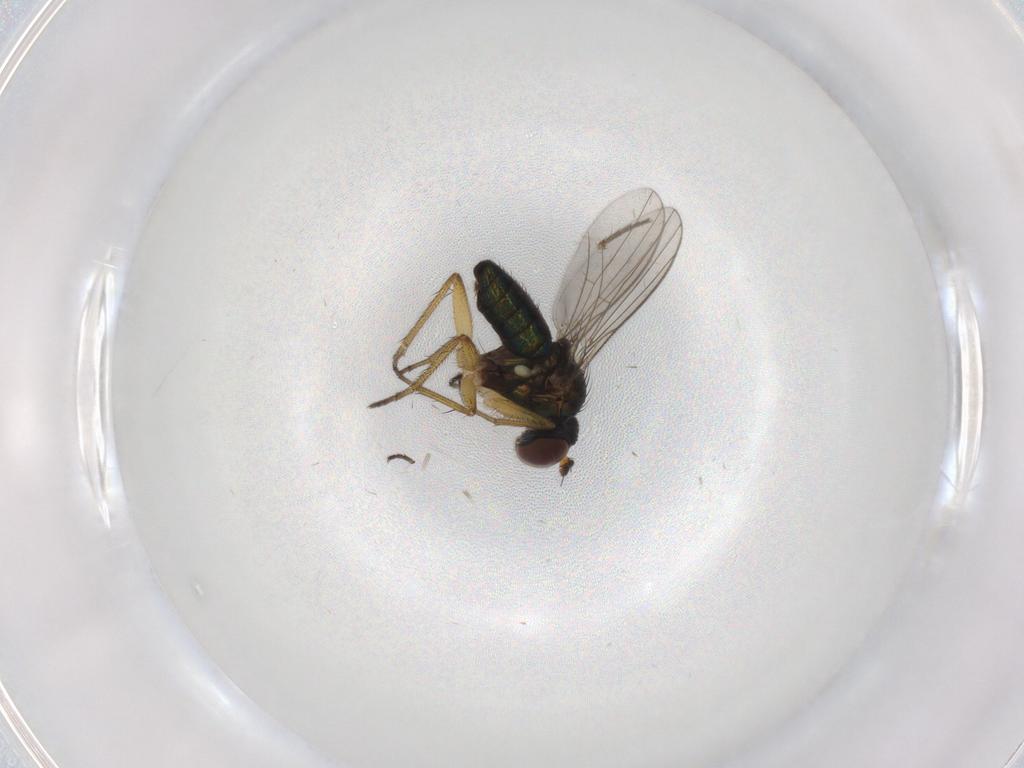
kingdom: Animalia
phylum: Arthropoda
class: Insecta
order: Diptera
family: Dolichopodidae
